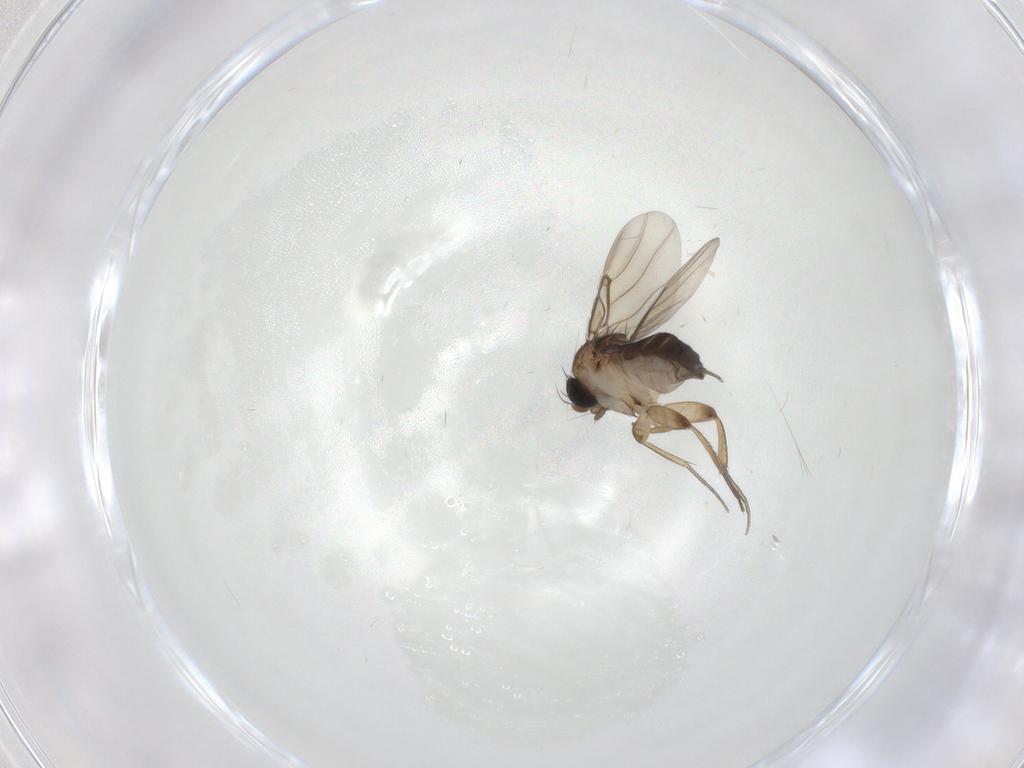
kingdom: Animalia
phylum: Arthropoda
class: Insecta
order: Diptera
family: Phoridae
